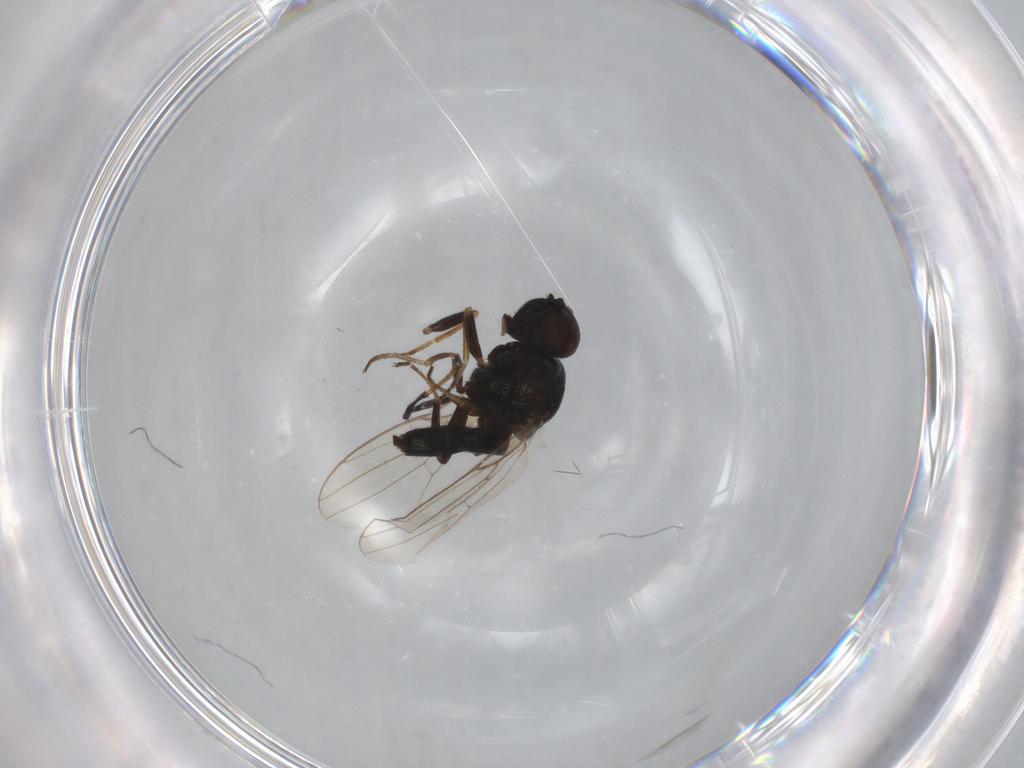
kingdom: Animalia
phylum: Arthropoda
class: Insecta
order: Diptera
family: Chloropidae
